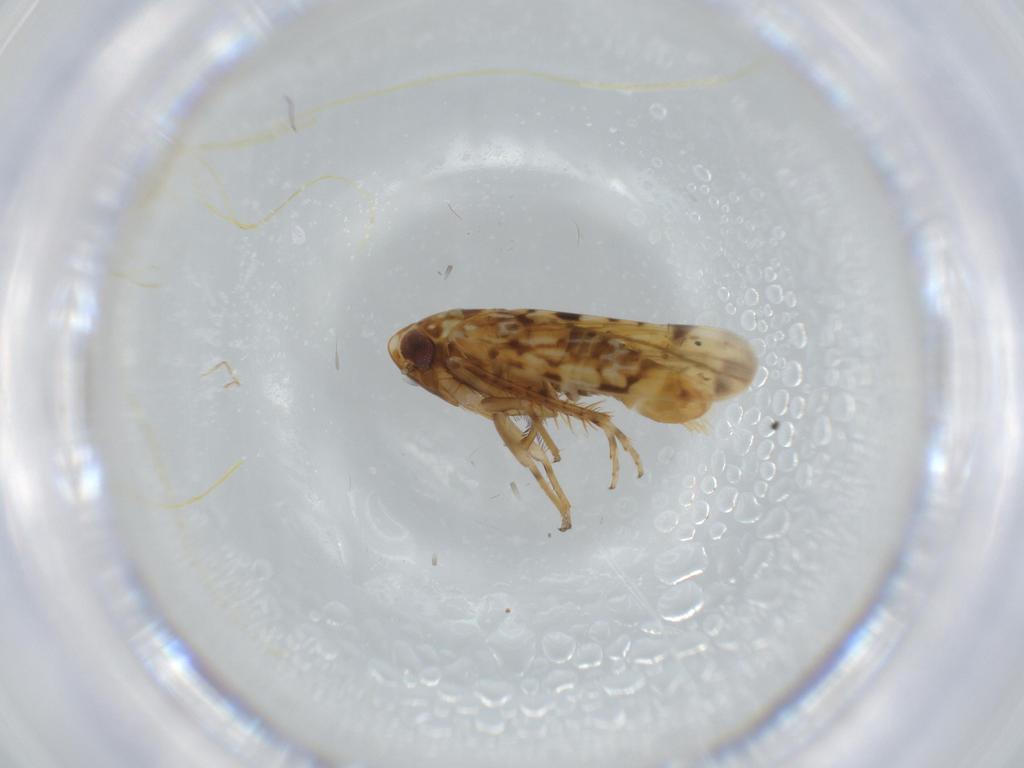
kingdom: Animalia
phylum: Arthropoda
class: Insecta
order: Hemiptera
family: Cicadellidae
